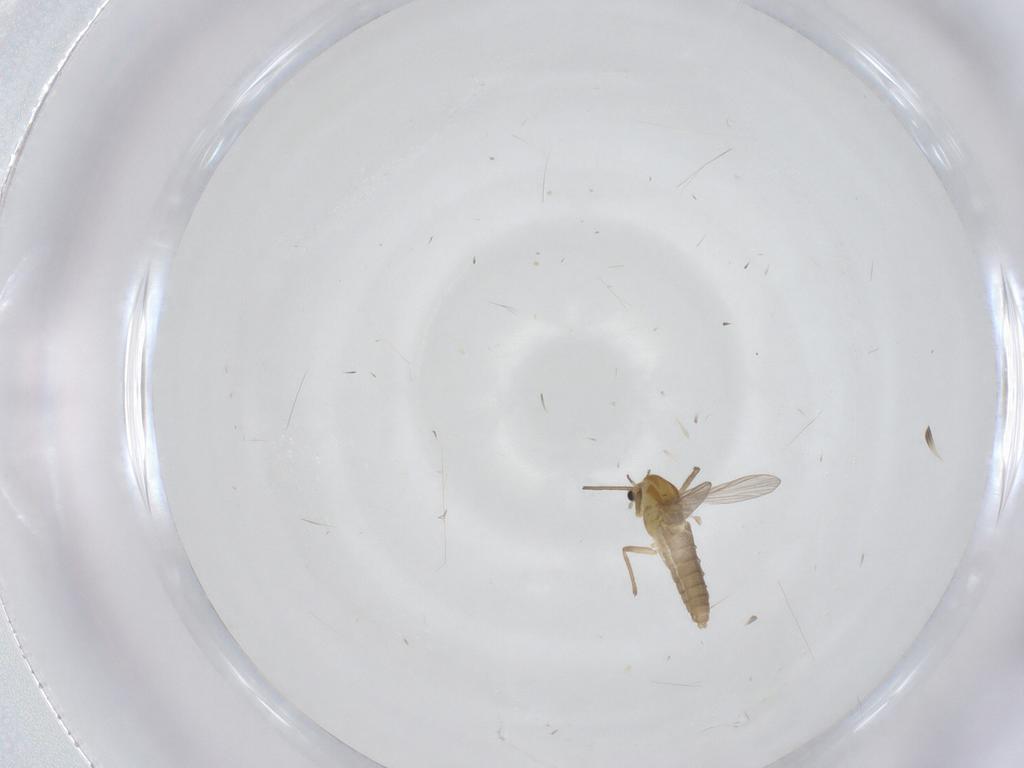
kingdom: Animalia
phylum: Arthropoda
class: Insecta
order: Diptera
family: Chironomidae
